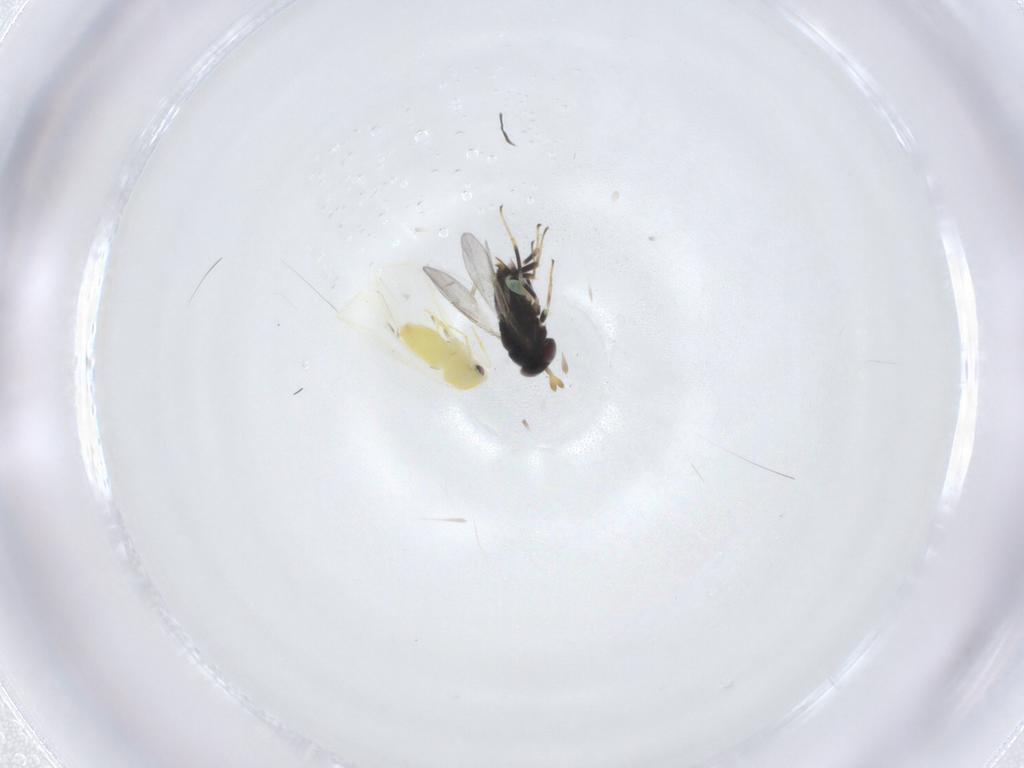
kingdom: Animalia
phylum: Arthropoda
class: Insecta
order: Hymenoptera
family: Aphelinidae
